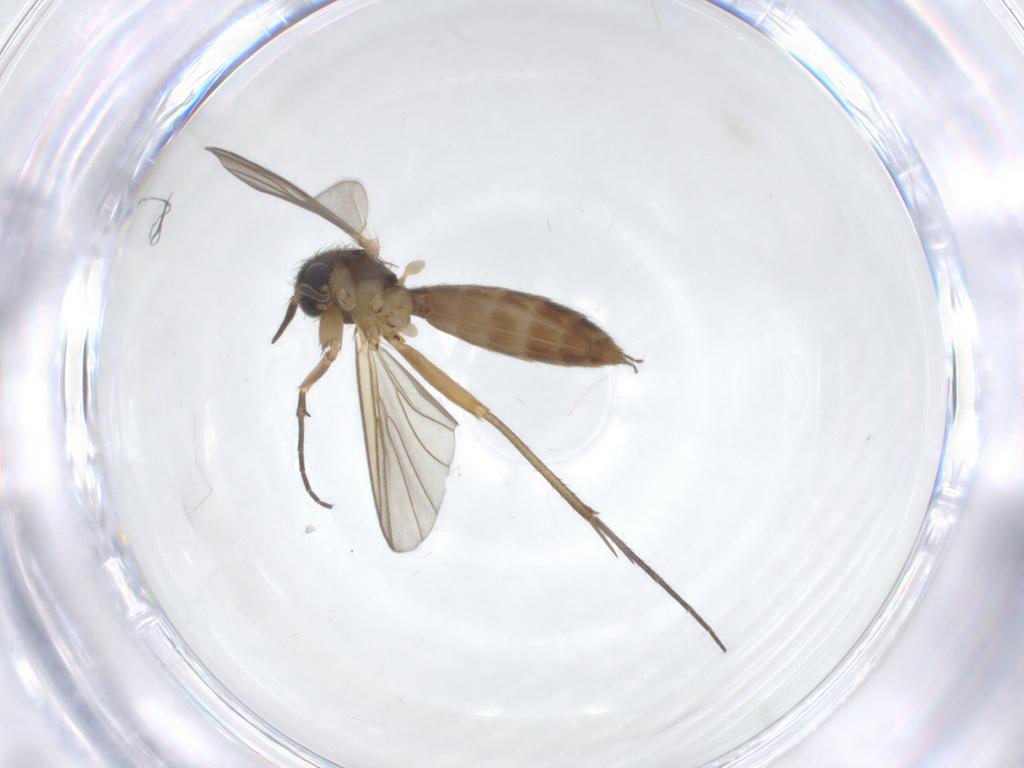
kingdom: Animalia
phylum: Arthropoda
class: Insecta
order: Diptera
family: Mycetophilidae
